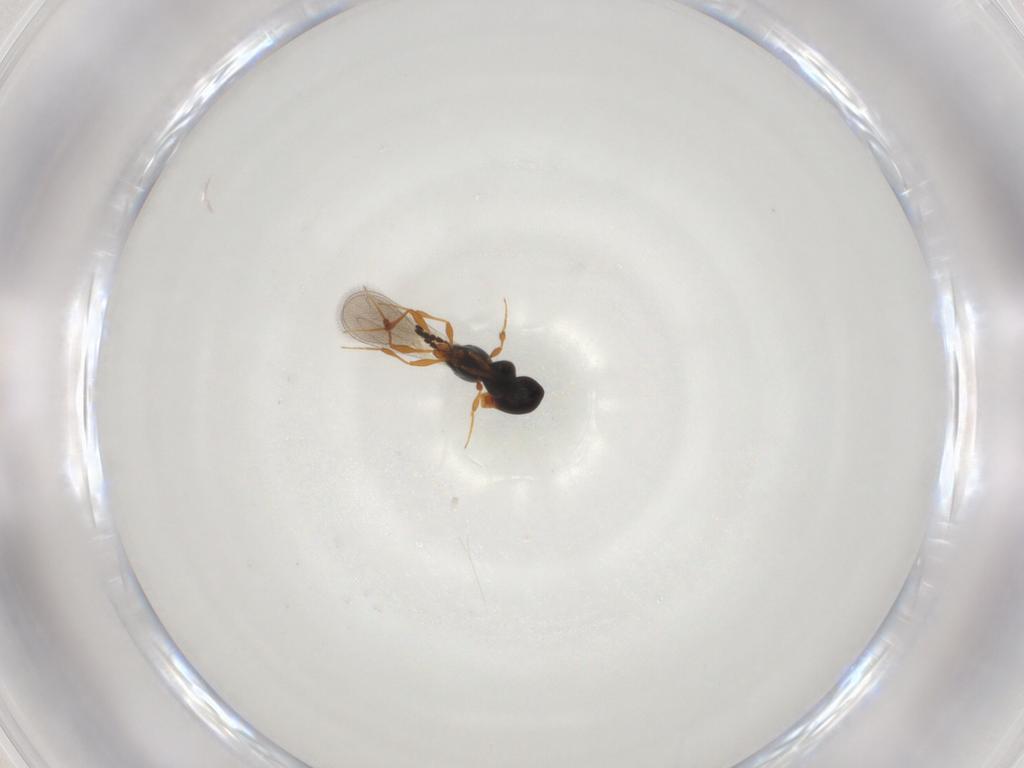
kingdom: Animalia
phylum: Arthropoda
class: Insecta
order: Hymenoptera
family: Platygastridae
